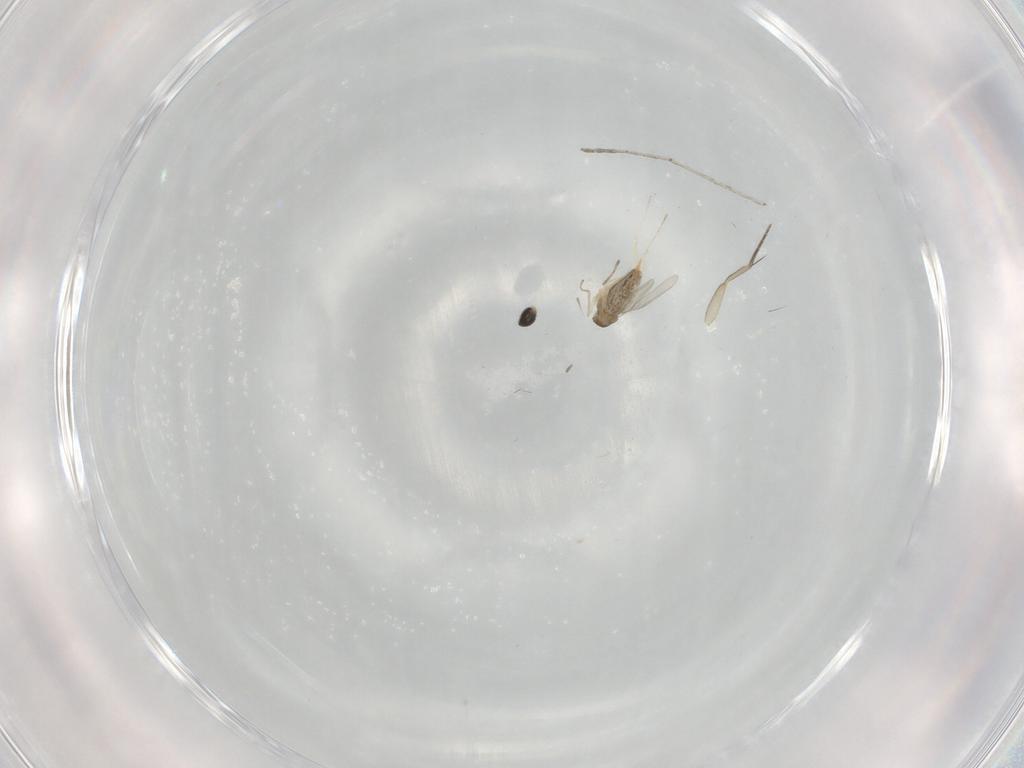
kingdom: Animalia
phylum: Arthropoda
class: Insecta
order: Diptera
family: Cecidomyiidae
